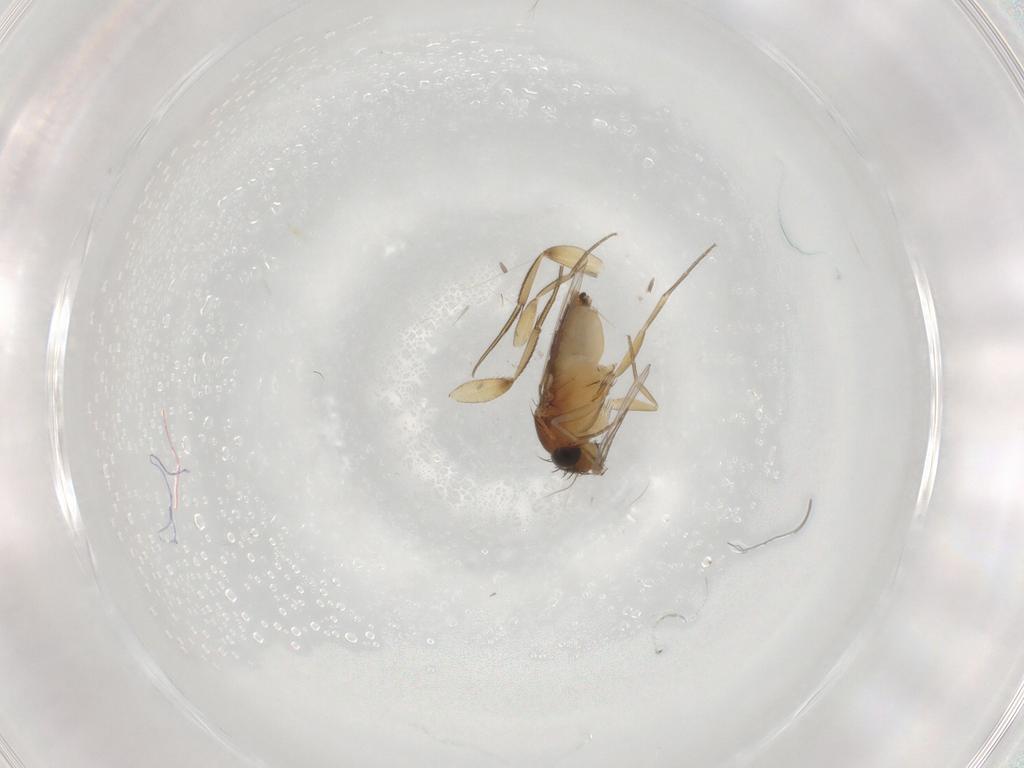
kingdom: Animalia
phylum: Arthropoda
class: Insecta
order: Diptera
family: Phoridae
